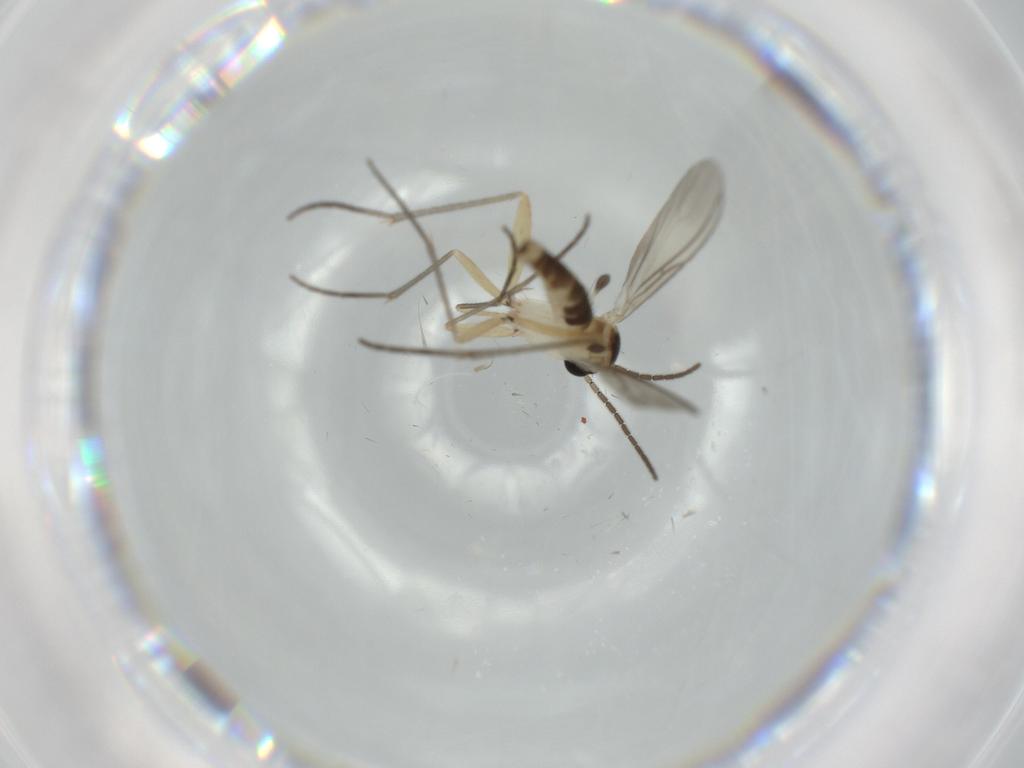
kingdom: Animalia
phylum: Arthropoda
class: Insecta
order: Diptera
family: Sciaridae
